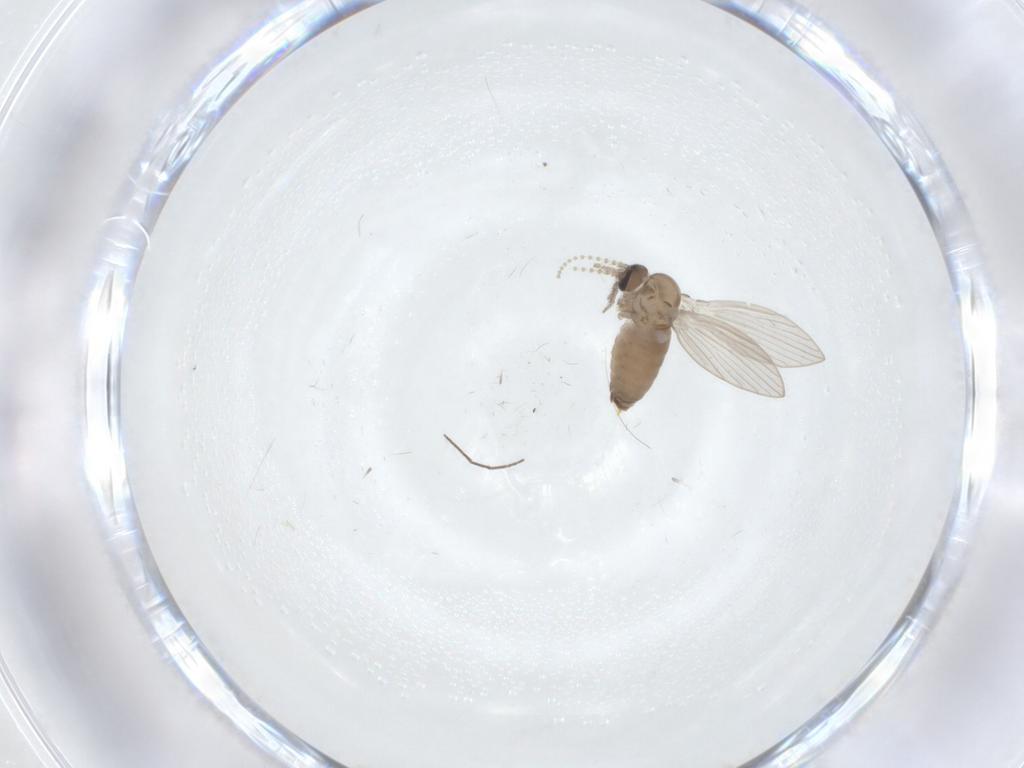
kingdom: Animalia
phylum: Arthropoda
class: Insecta
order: Diptera
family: Psychodidae
